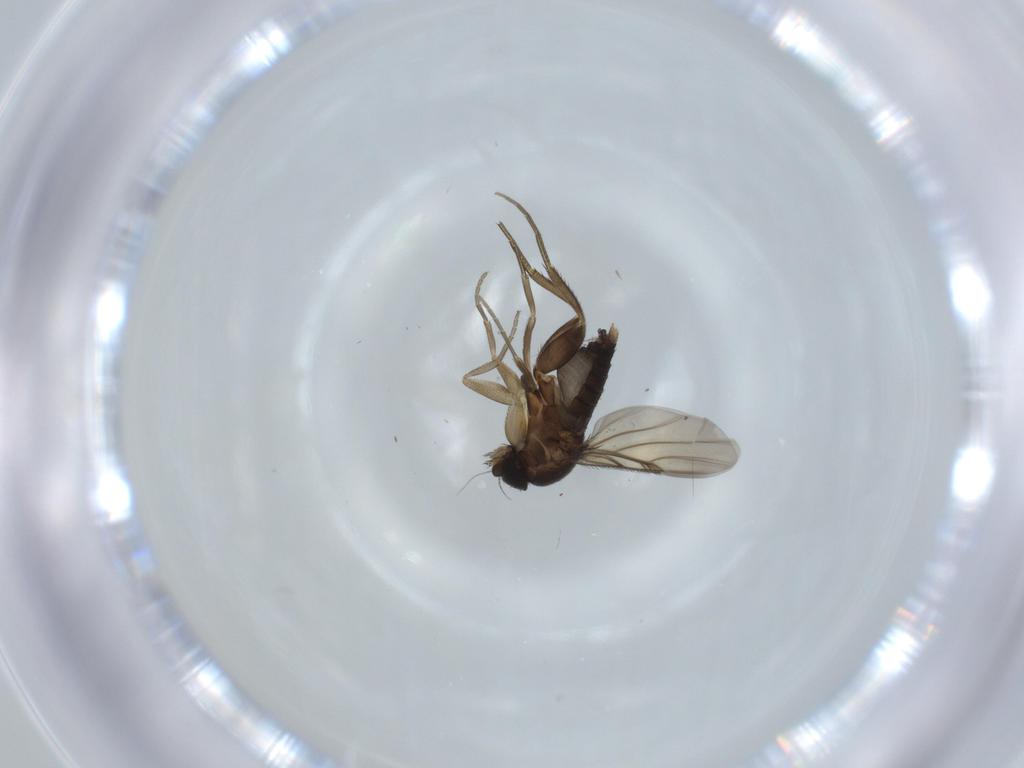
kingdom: Animalia
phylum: Arthropoda
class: Insecta
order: Diptera
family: Phoridae
